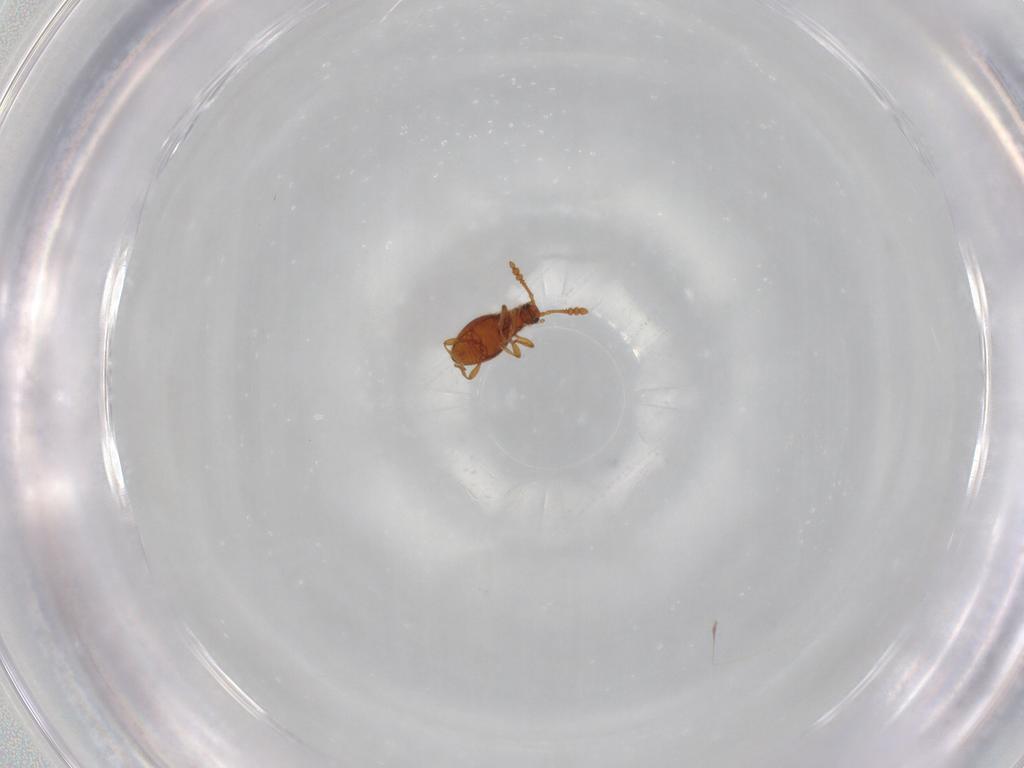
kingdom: Animalia
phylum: Arthropoda
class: Insecta
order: Coleoptera
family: Staphylinidae
